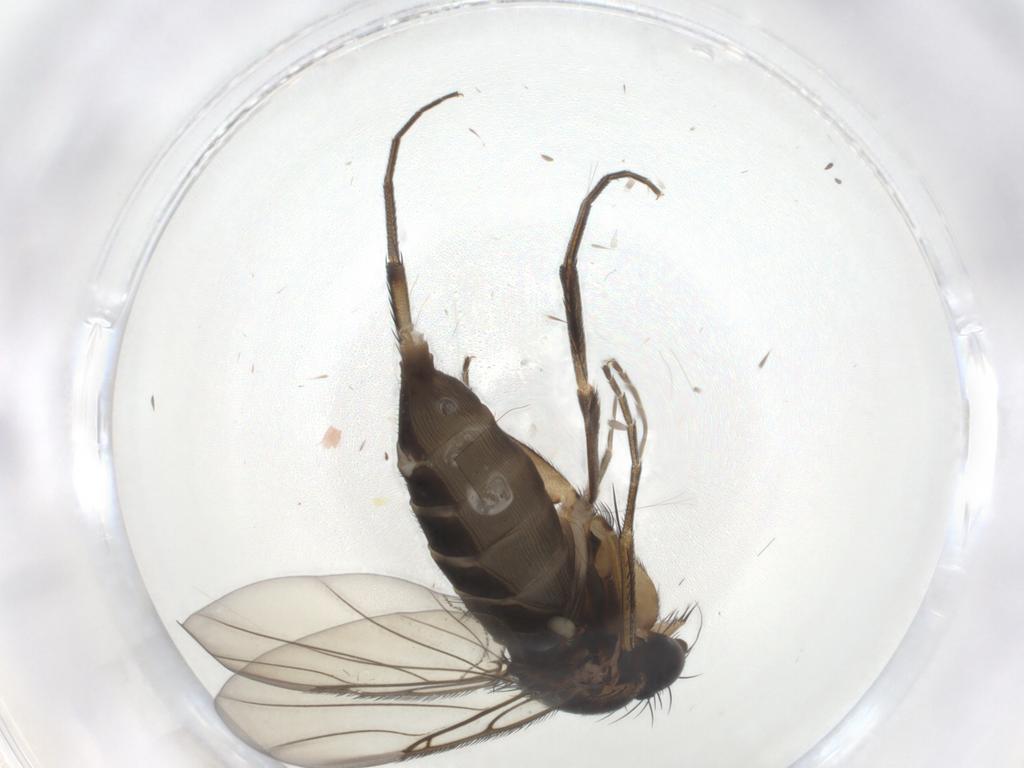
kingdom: Animalia
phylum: Arthropoda
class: Insecta
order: Diptera
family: Phoridae
